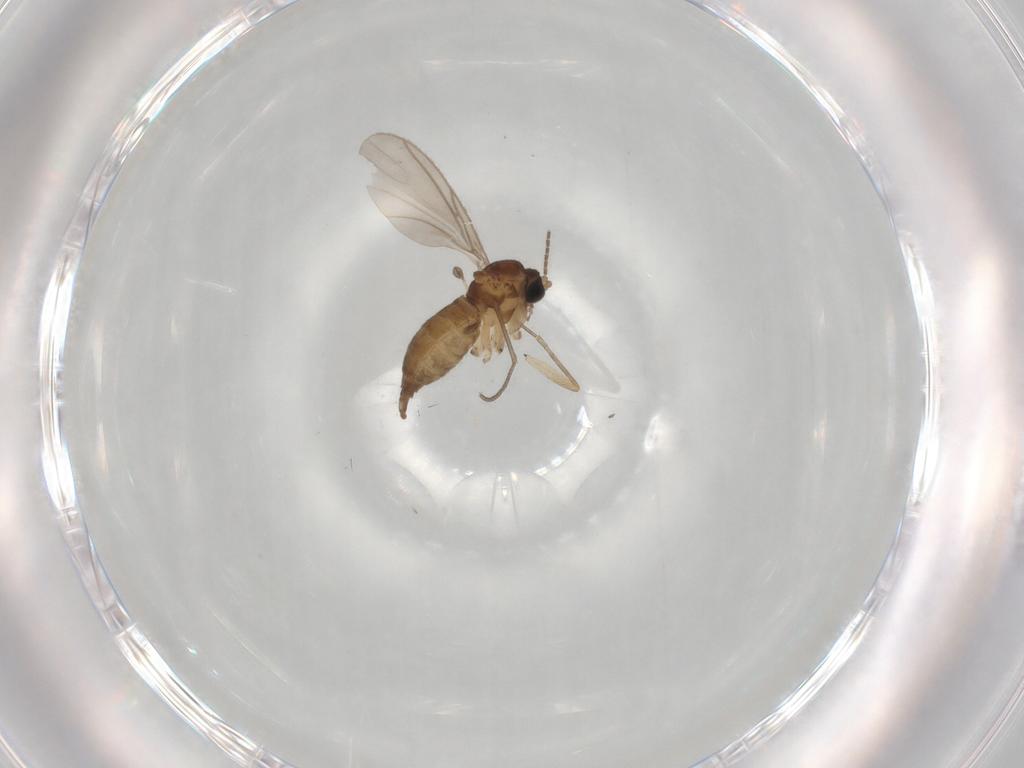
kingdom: Animalia
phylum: Arthropoda
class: Insecta
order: Diptera
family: Sciaridae
